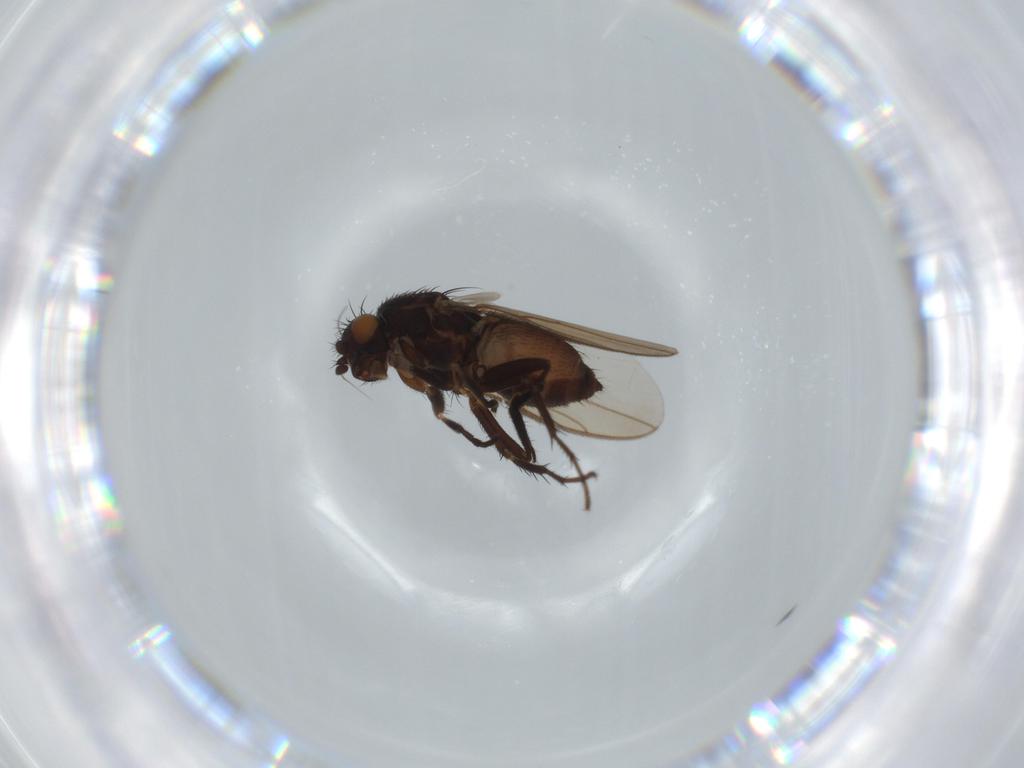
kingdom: Animalia
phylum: Arthropoda
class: Insecta
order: Diptera
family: Sphaeroceridae
